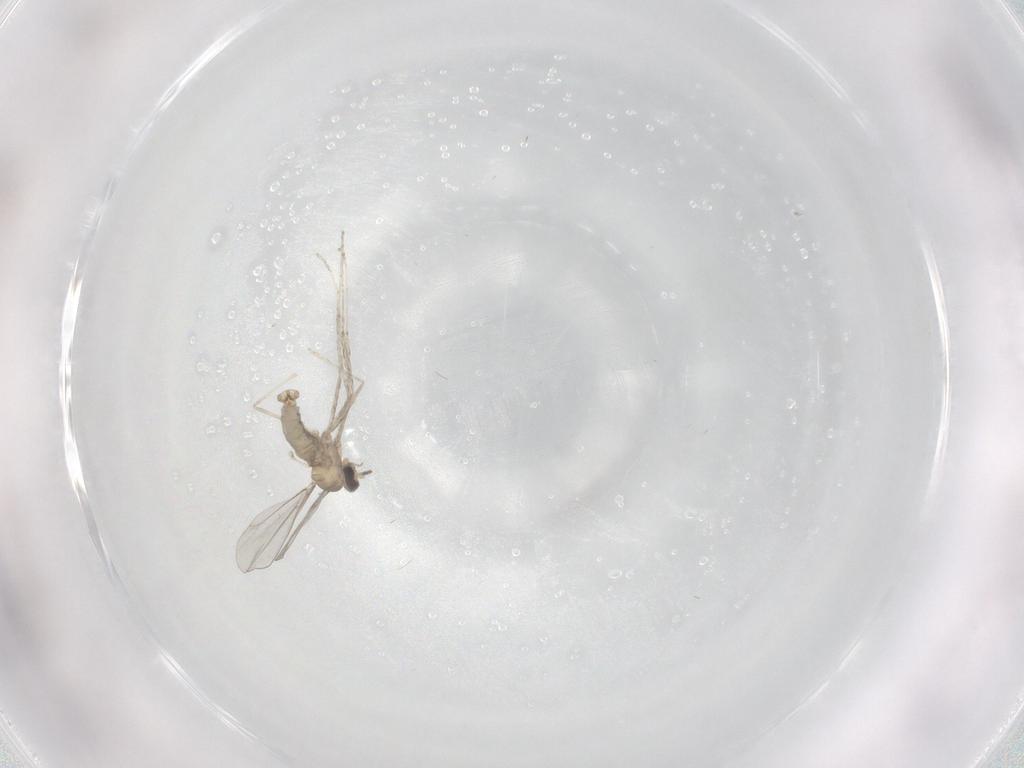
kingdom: Animalia
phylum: Arthropoda
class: Insecta
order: Diptera
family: Cecidomyiidae
